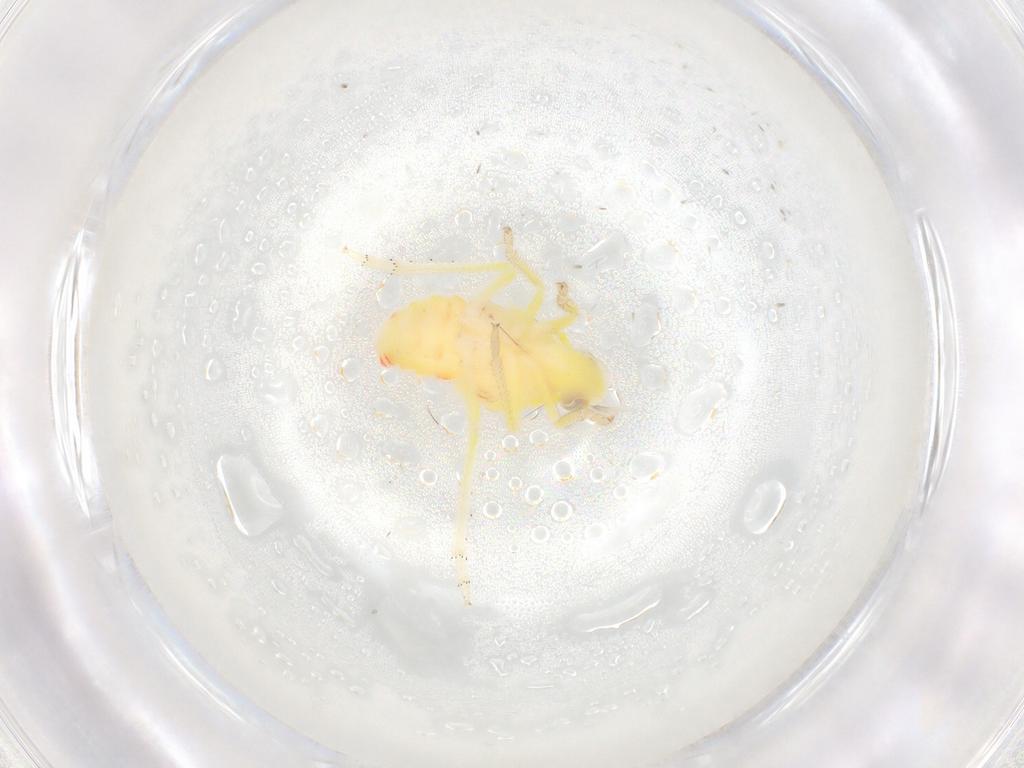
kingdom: Animalia
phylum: Arthropoda
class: Insecta
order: Hemiptera
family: Tropiduchidae
